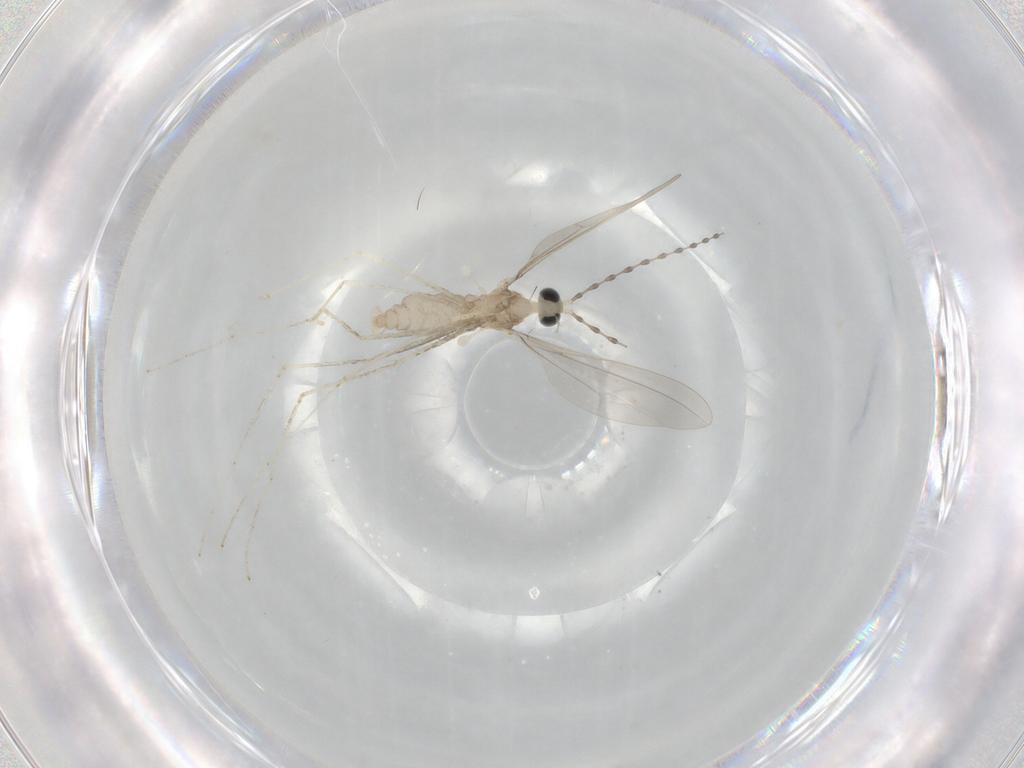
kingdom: Animalia
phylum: Arthropoda
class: Insecta
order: Diptera
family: Cecidomyiidae
